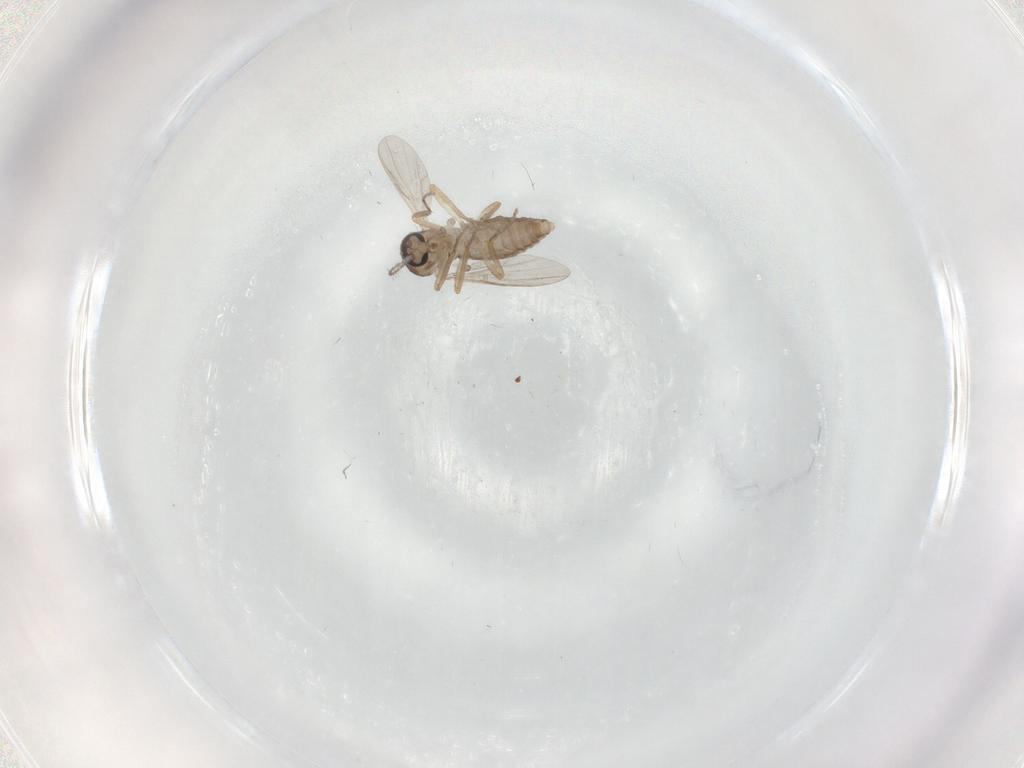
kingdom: Animalia
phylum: Arthropoda
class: Insecta
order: Diptera
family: Ceratopogonidae
